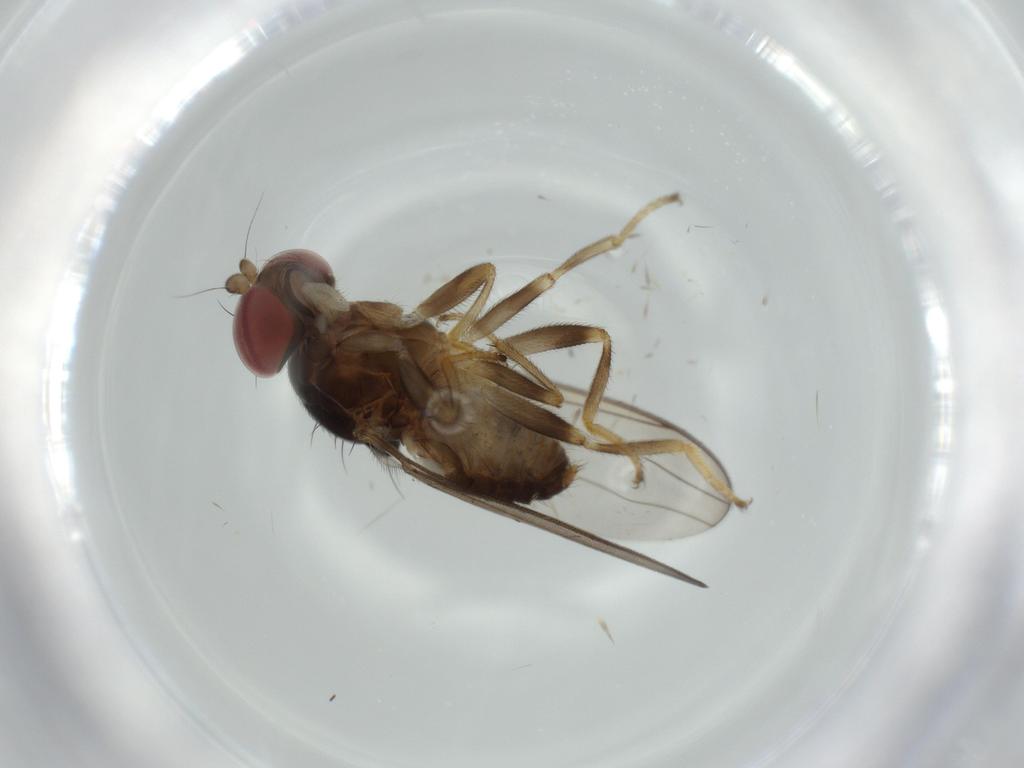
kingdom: Animalia
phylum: Arthropoda
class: Insecta
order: Diptera
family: Aulacigastridae
